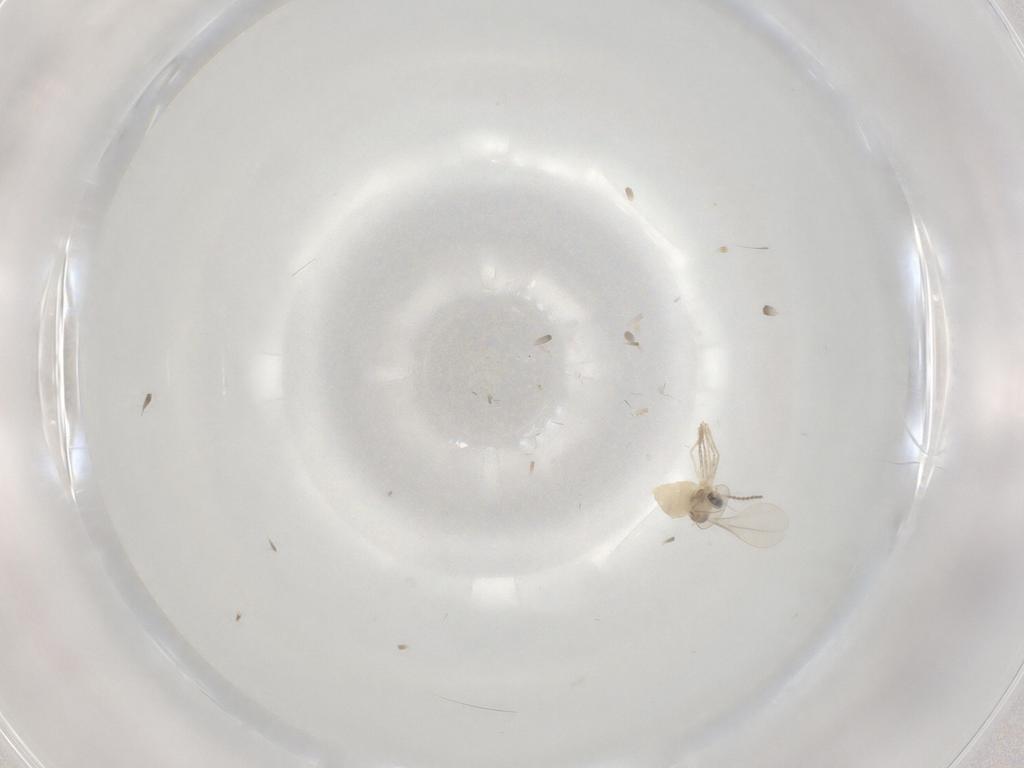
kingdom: Animalia
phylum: Arthropoda
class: Insecta
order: Diptera
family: Cecidomyiidae
